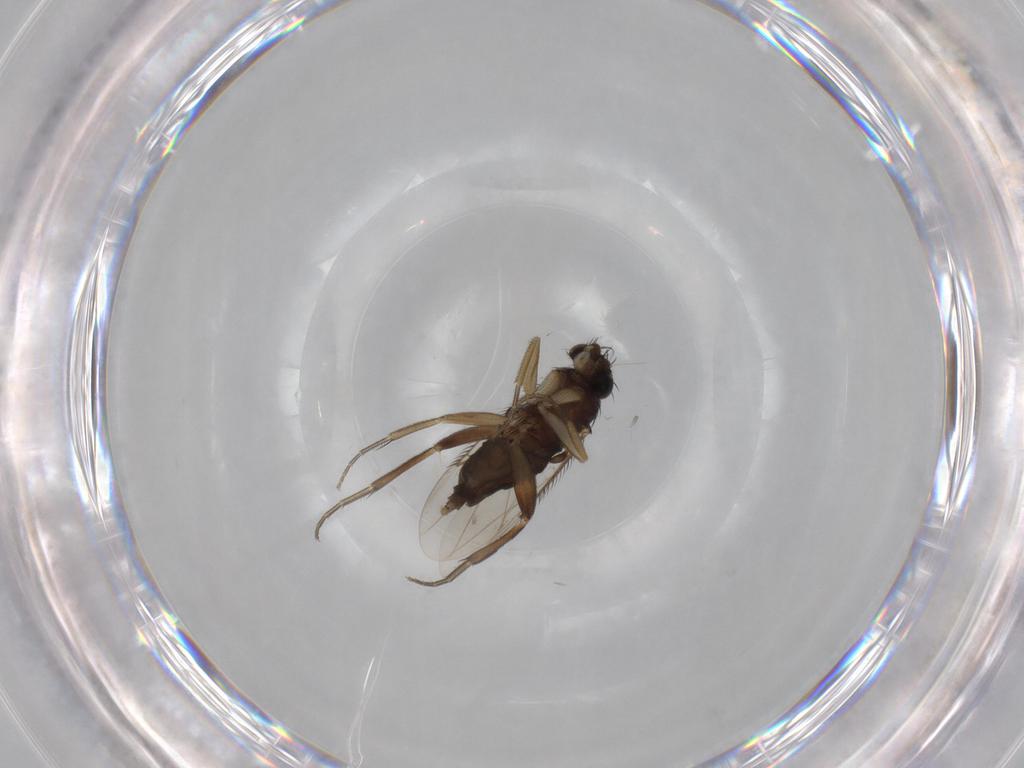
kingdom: Animalia
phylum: Arthropoda
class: Insecta
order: Diptera
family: Phoridae
